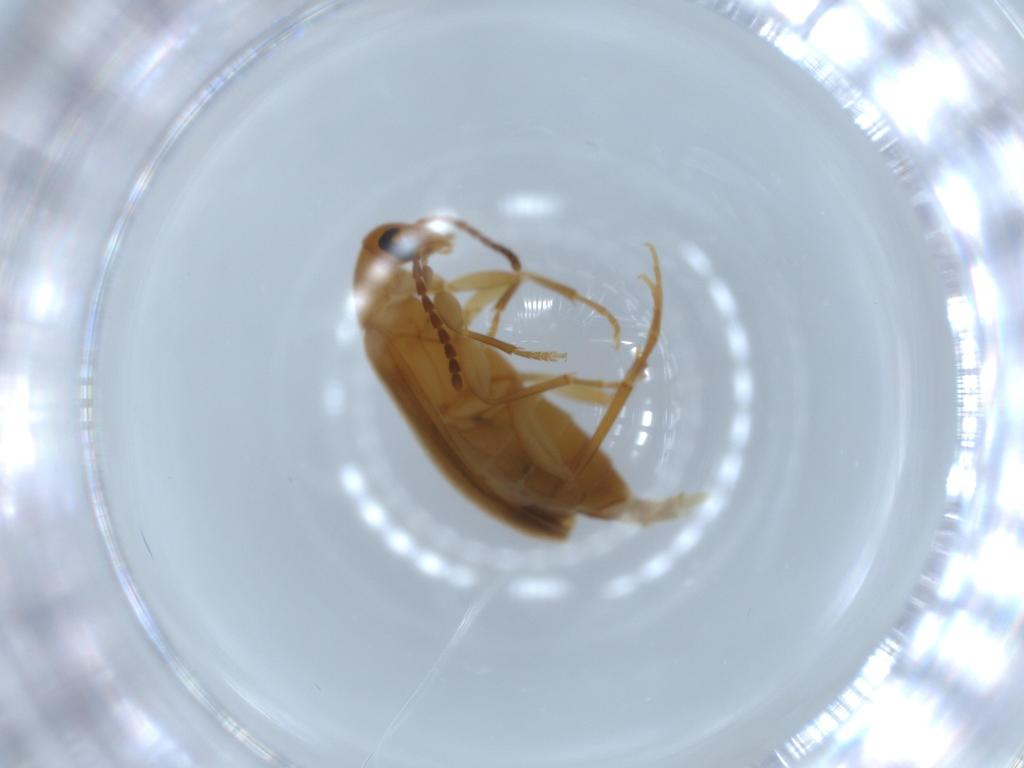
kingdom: Animalia
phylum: Arthropoda
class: Insecta
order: Coleoptera
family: Scraptiidae
